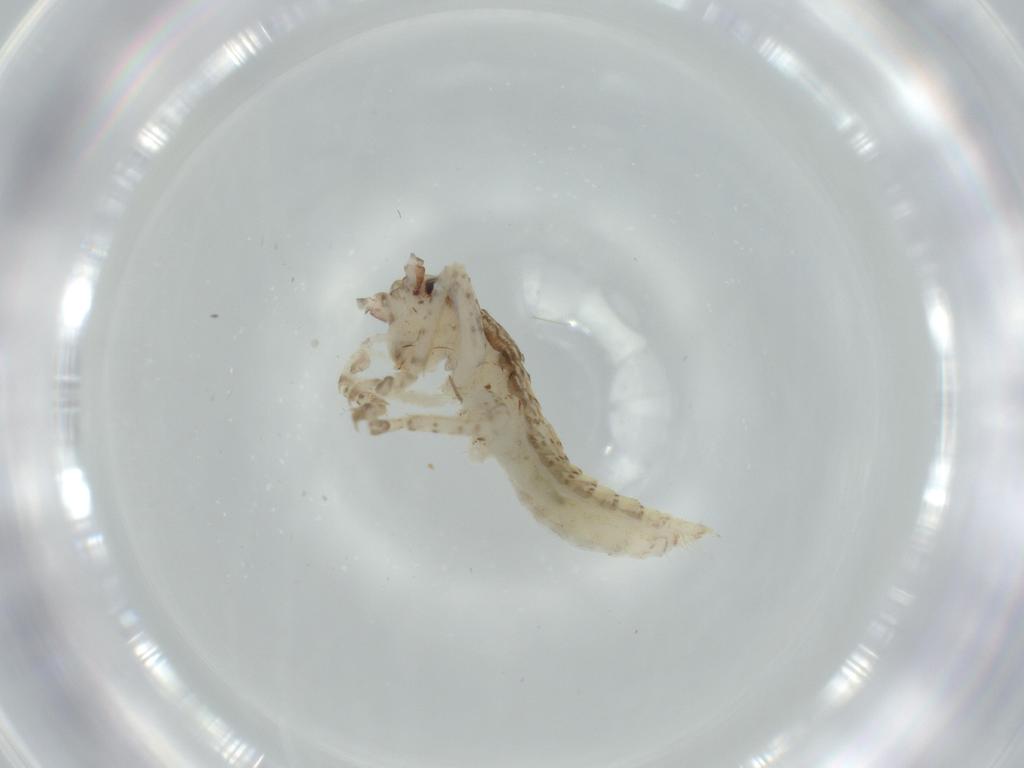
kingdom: Animalia
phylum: Arthropoda
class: Insecta
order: Orthoptera
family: Gryllidae
